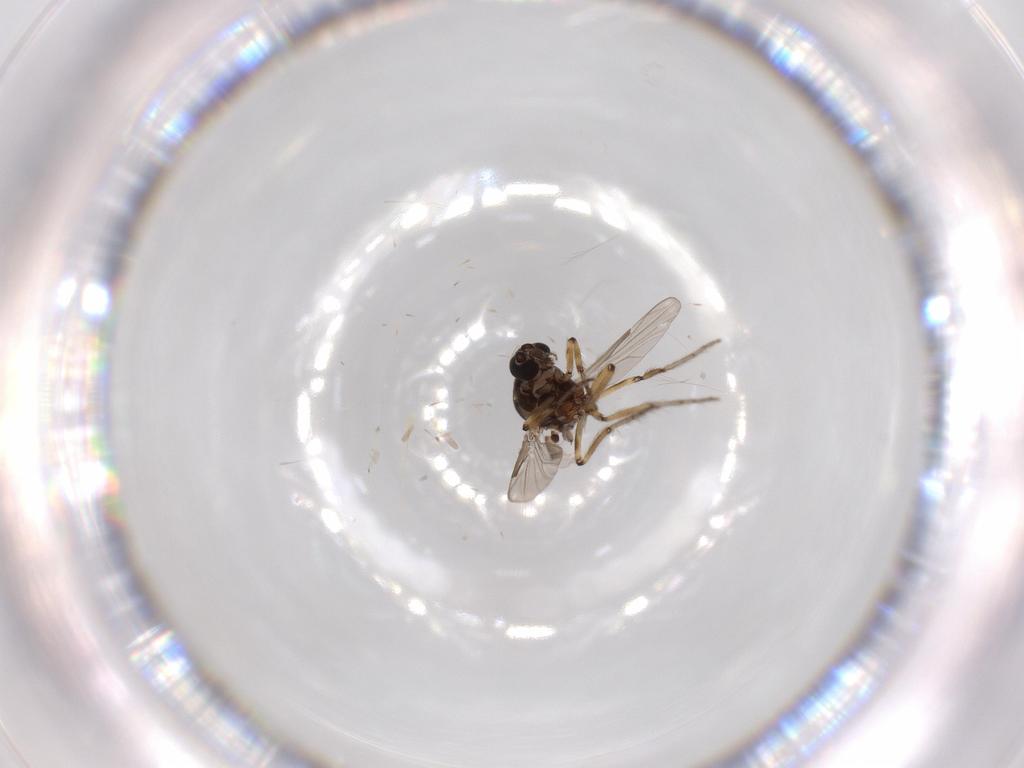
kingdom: Animalia
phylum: Arthropoda
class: Insecta
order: Diptera
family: Ceratopogonidae
